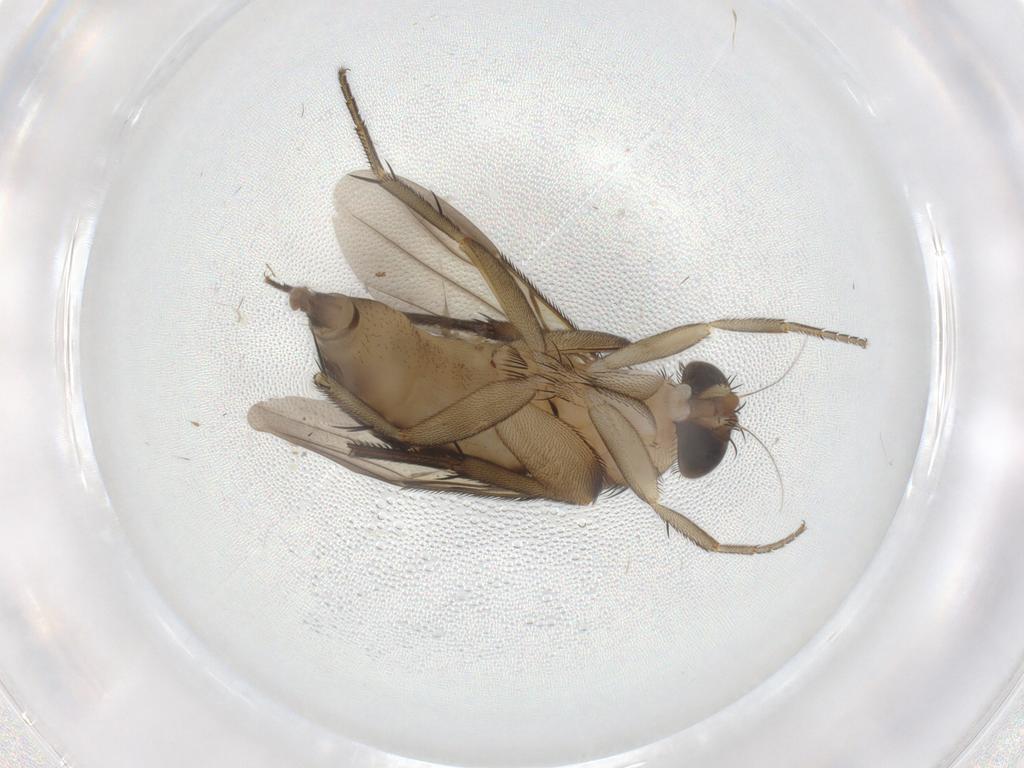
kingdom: Animalia
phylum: Arthropoda
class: Insecta
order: Diptera
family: Phoridae
